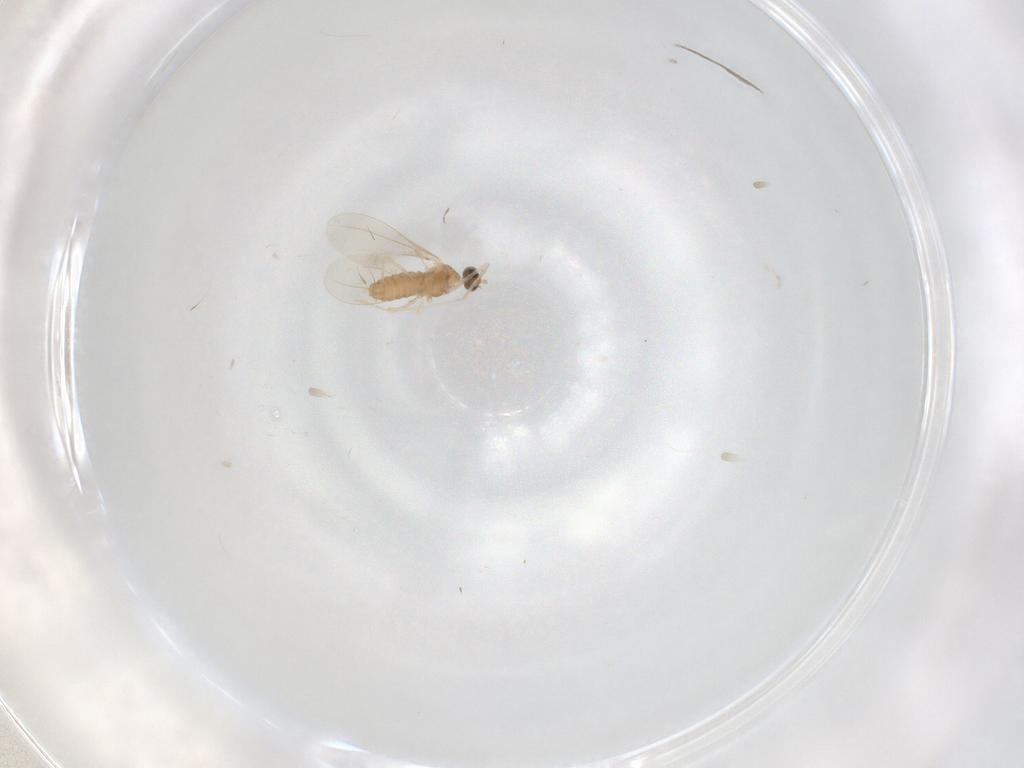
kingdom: Animalia
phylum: Arthropoda
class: Insecta
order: Diptera
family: Cecidomyiidae
